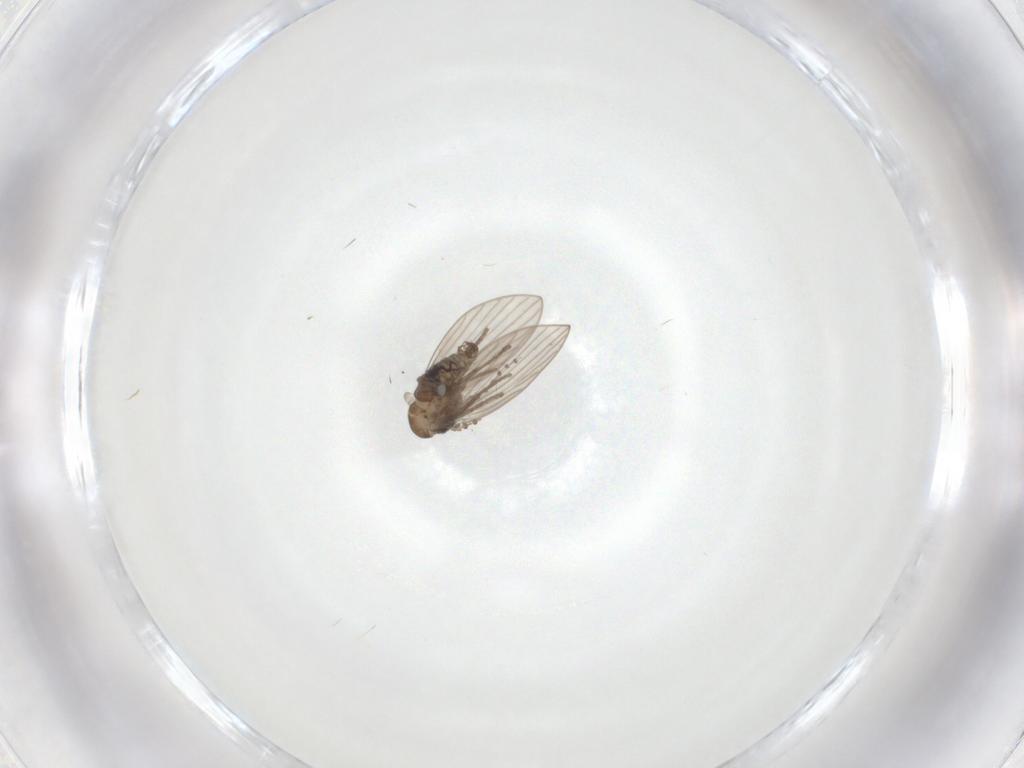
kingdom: Animalia
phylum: Arthropoda
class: Insecta
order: Diptera
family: Psychodidae
